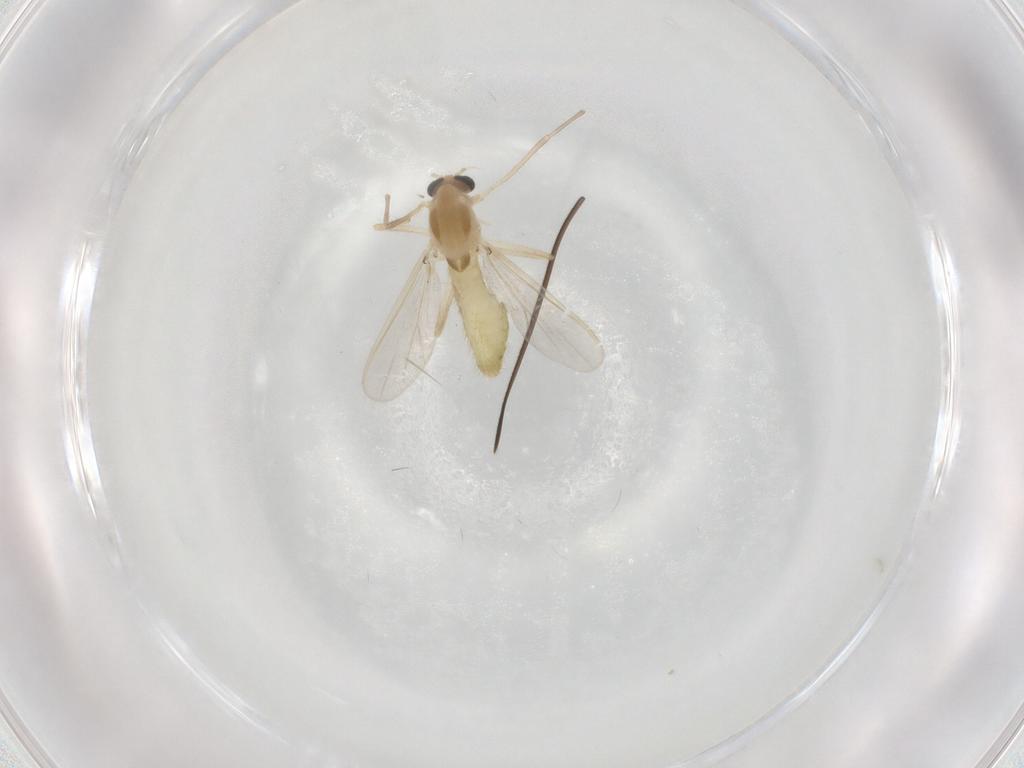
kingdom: Animalia
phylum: Arthropoda
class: Insecta
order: Diptera
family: Chironomidae
